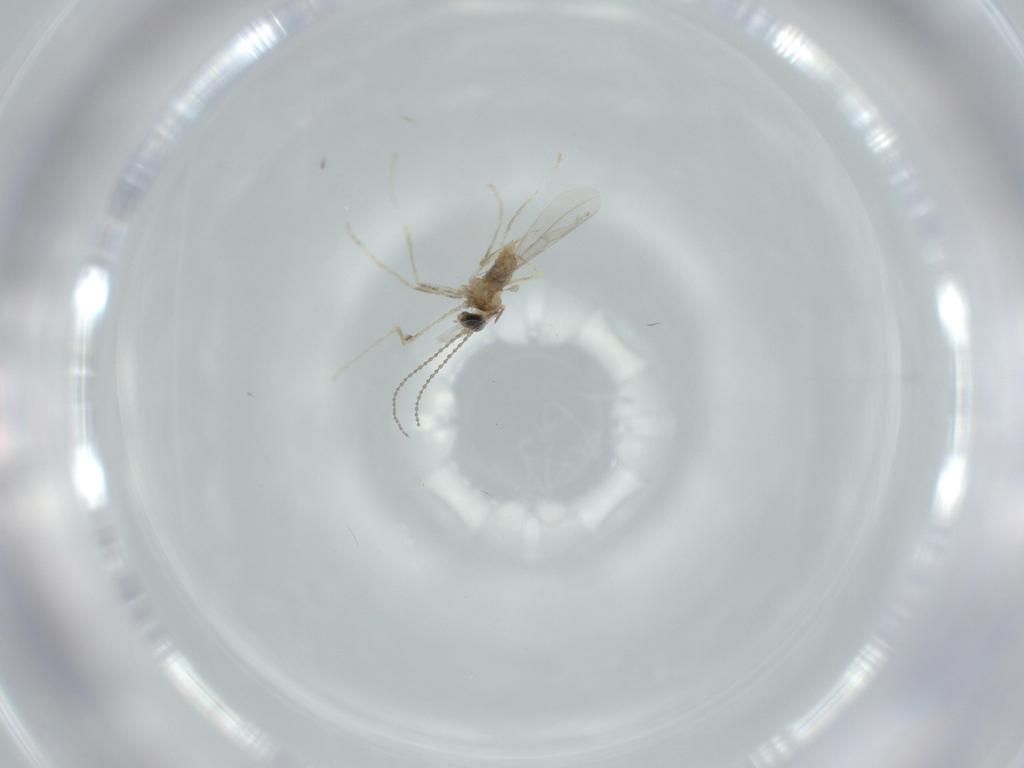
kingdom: Animalia
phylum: Arthropoda
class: Insecta
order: Diptera
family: Cecidomyiidae
